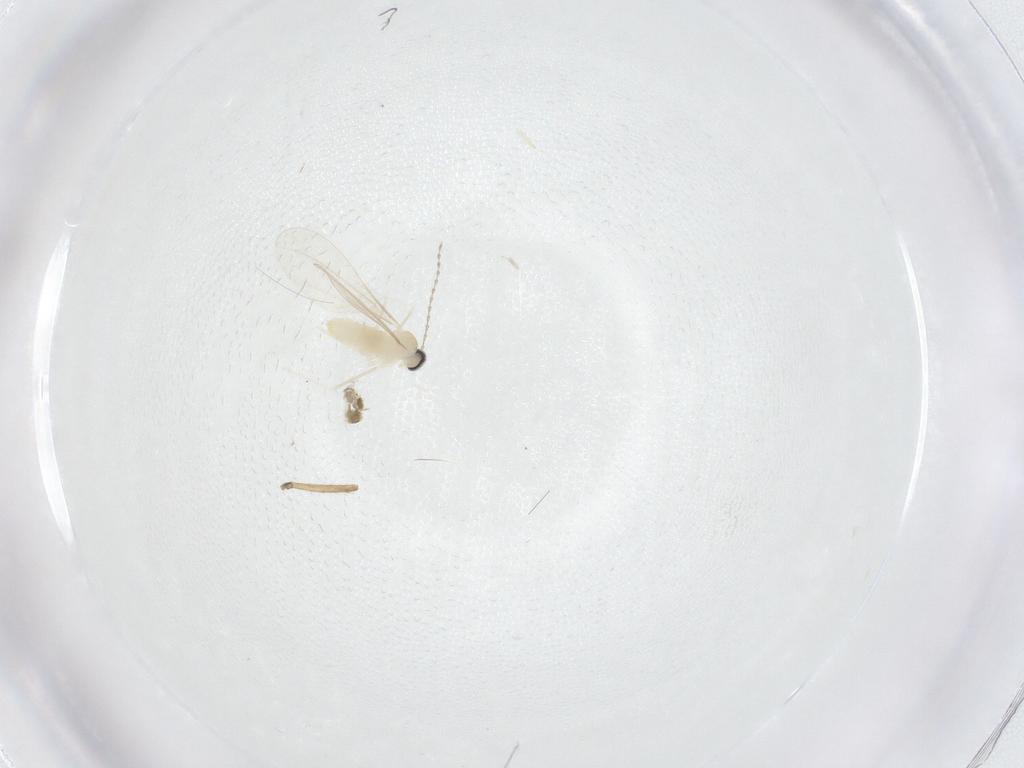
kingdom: Animalia
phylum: Arthropoda
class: Insecta
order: Diptera
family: Cecidomyiidae
